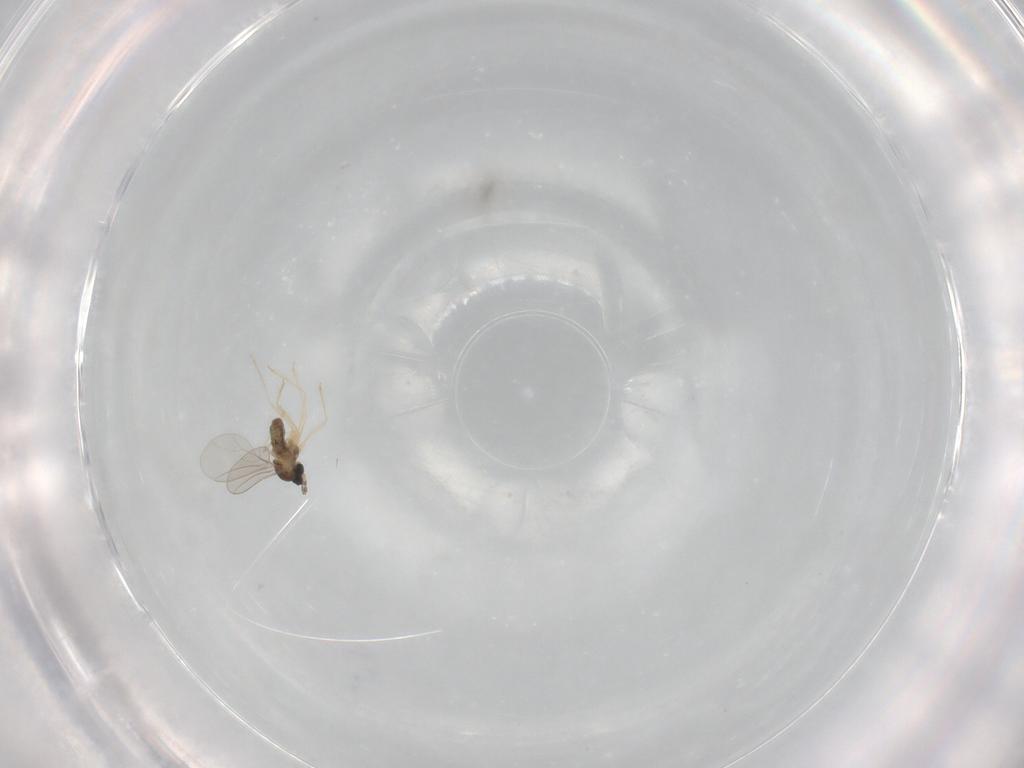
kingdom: Animalia
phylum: Arthropoda
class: Insecta
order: Diptera
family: Cecidomyiidae
